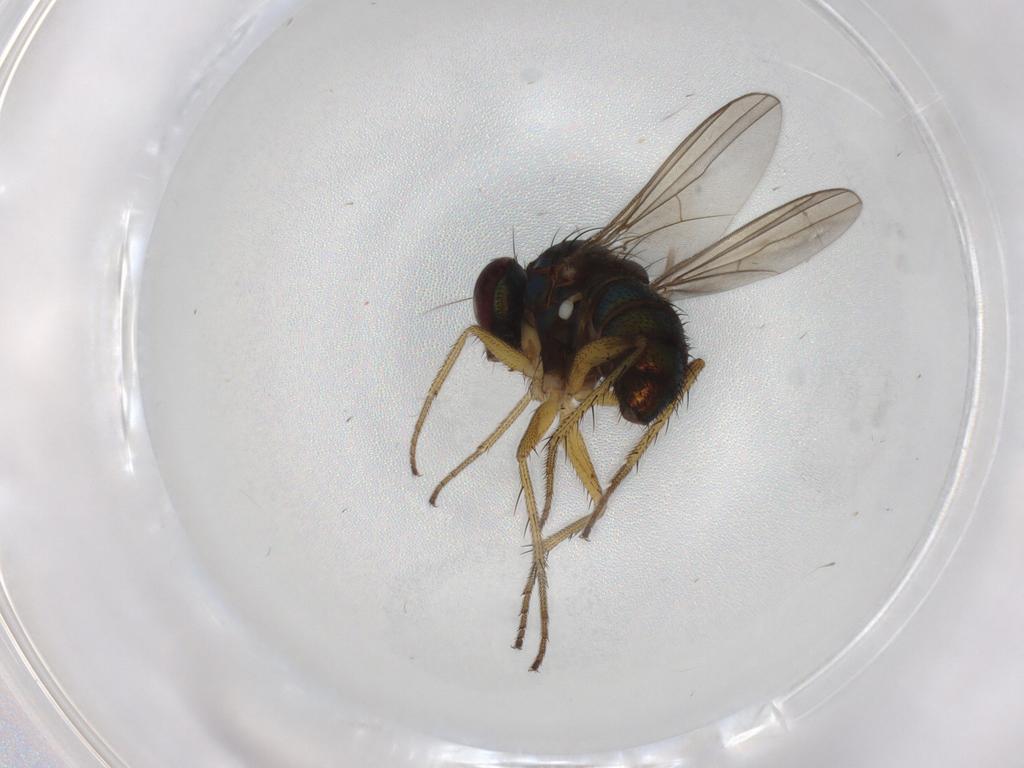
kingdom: Animalia
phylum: Arthropoda
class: Insecta
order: Diptera
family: Dolichopodidae
